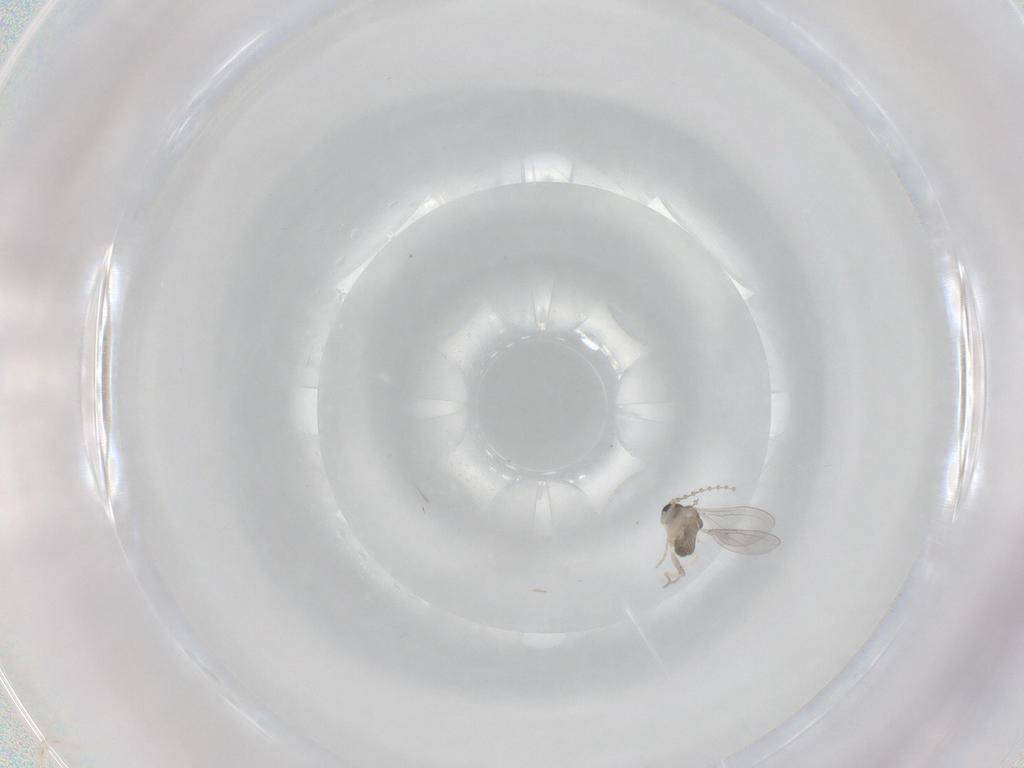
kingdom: Animalia
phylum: Arthropoda
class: Insecta
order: Diptera
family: Cecidomyiidae
